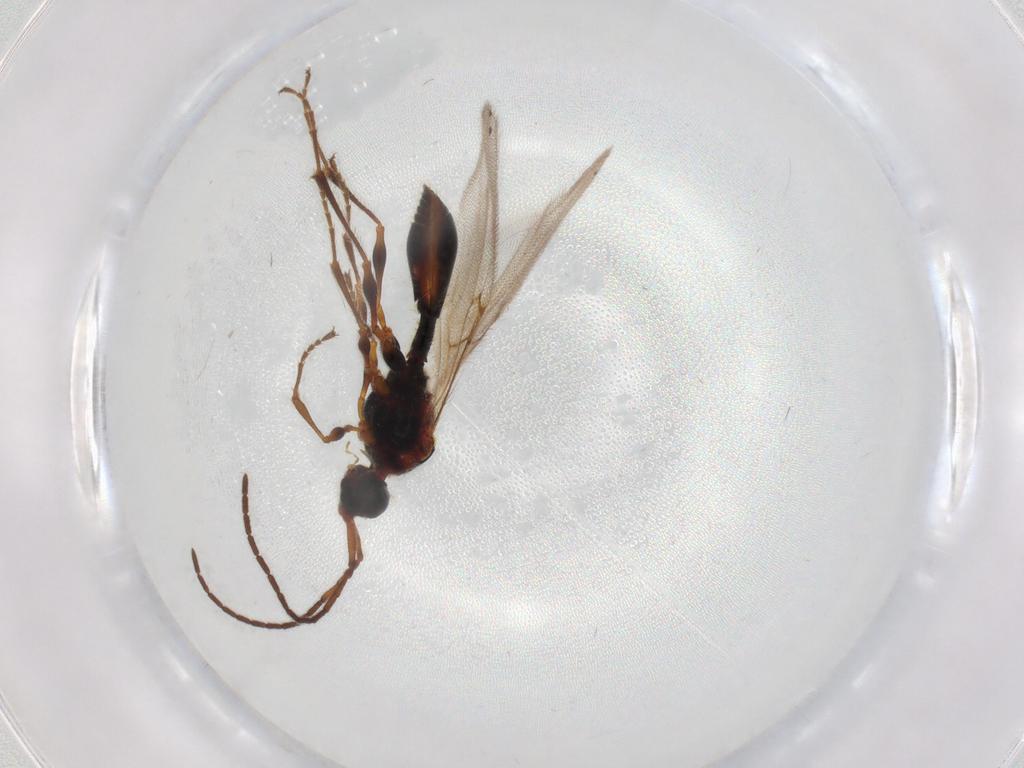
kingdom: Animalia
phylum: Arthropoda
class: Insecta
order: Hymenoptera
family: Diapriidae
